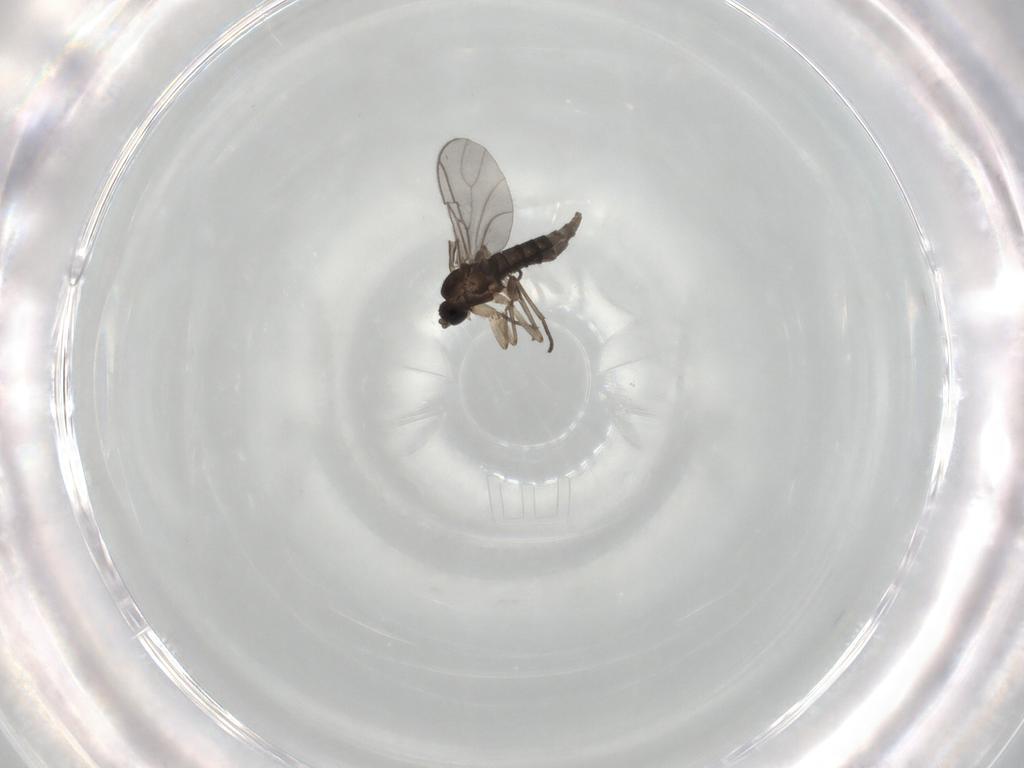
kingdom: Animalia
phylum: Arthropoda
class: Insecta
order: Diptera
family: Sciaridae
